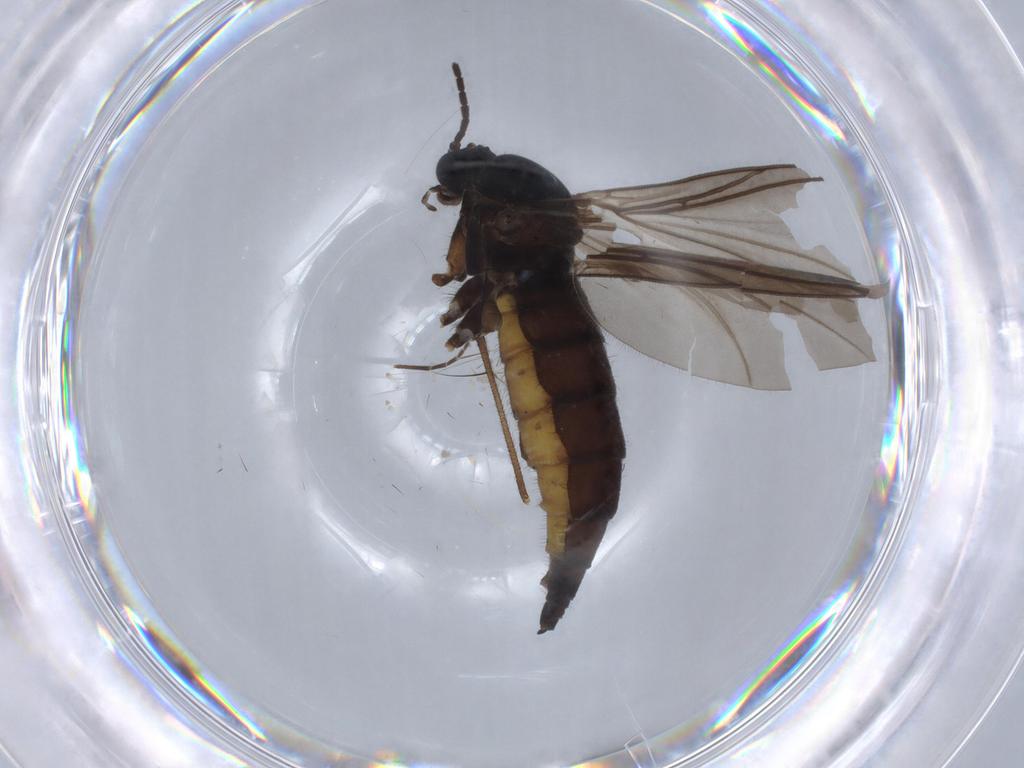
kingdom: Animalia
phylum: Arthropoda
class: Insecta
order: Diptera
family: Sciaridae
